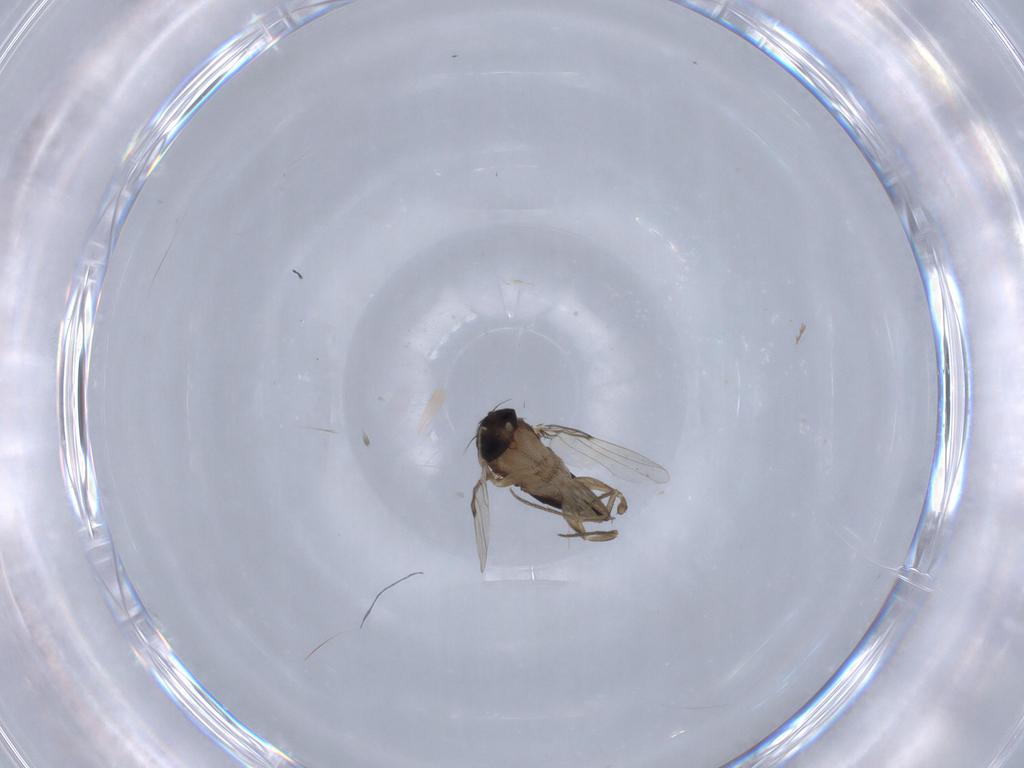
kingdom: Animalia
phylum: Arthropoda
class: Insecta
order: Diptera
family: Phoridae
